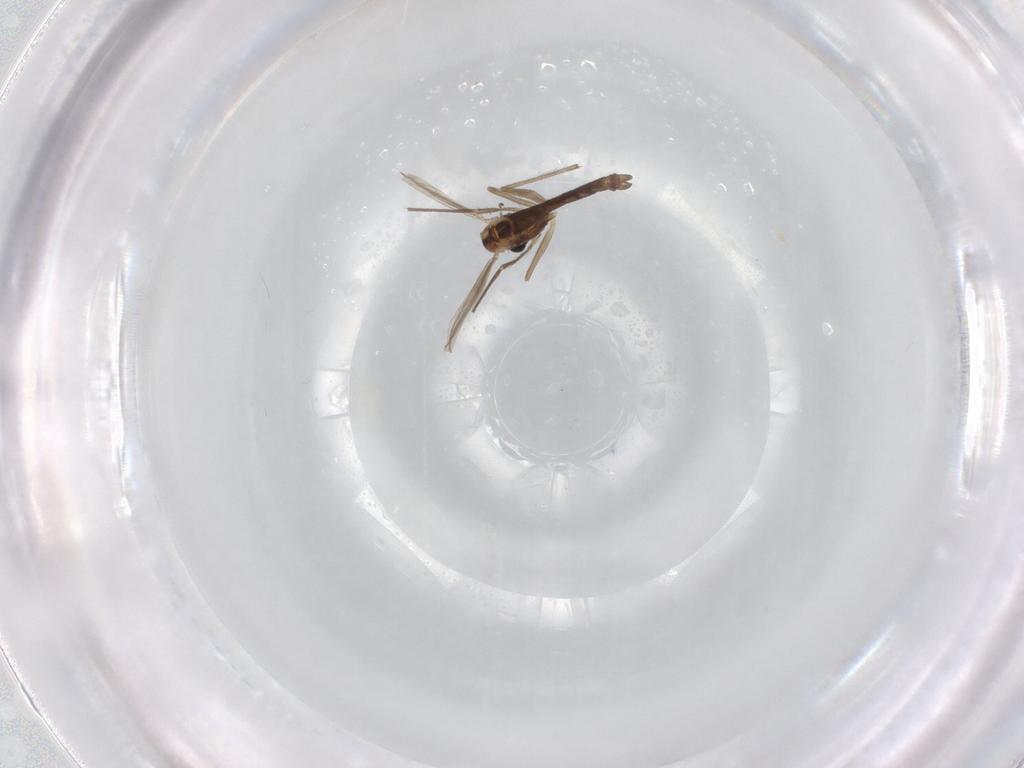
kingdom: Animalia
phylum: Arthropoda
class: Insecta
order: Diptera
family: Chironomidae
